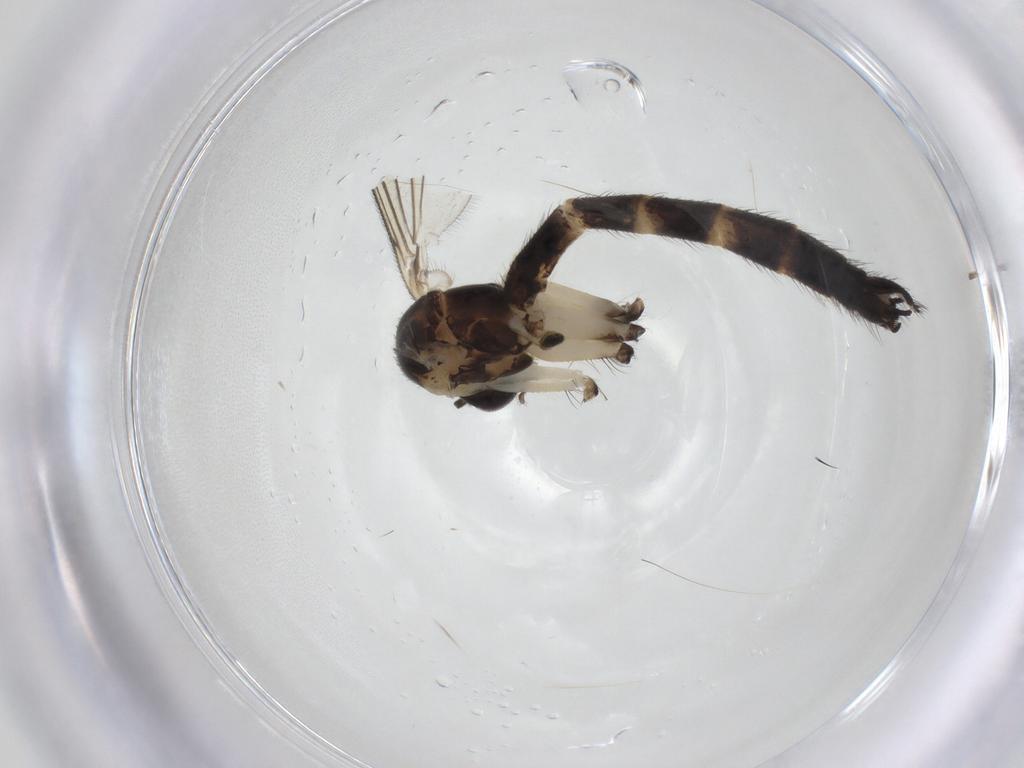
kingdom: Animalia
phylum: Arthropoda
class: Insecta
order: Diptera
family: Mycetophilidae
